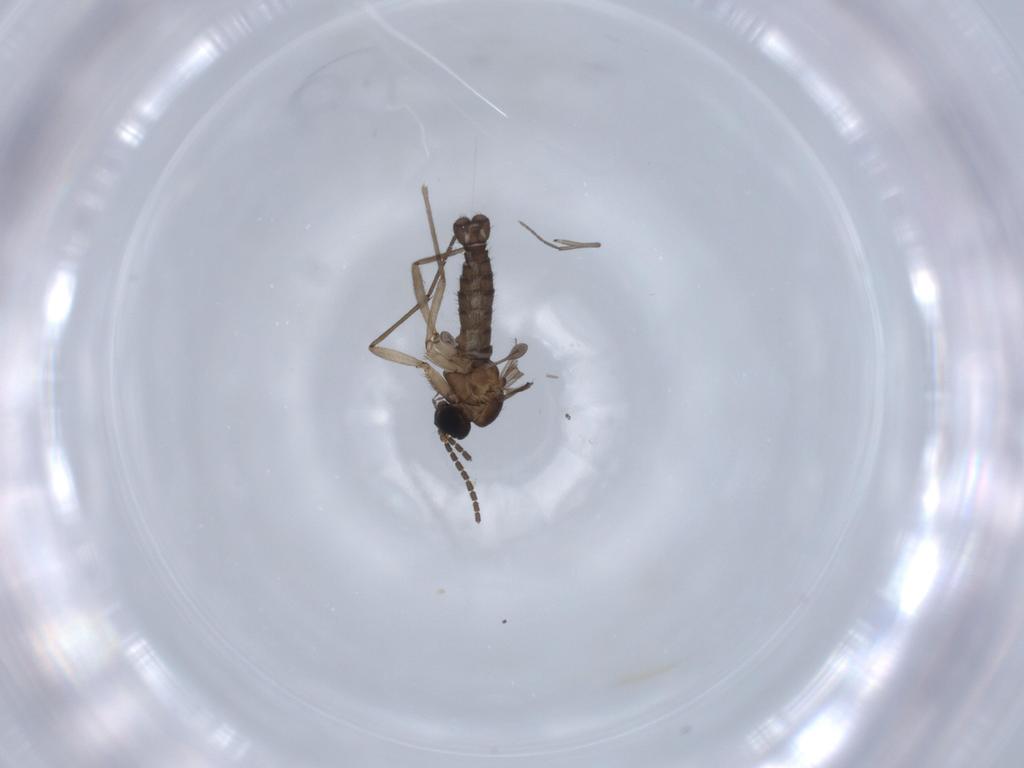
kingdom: Animalia
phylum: Arthropoda
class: Insecta
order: Diptera
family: Sciaridae
